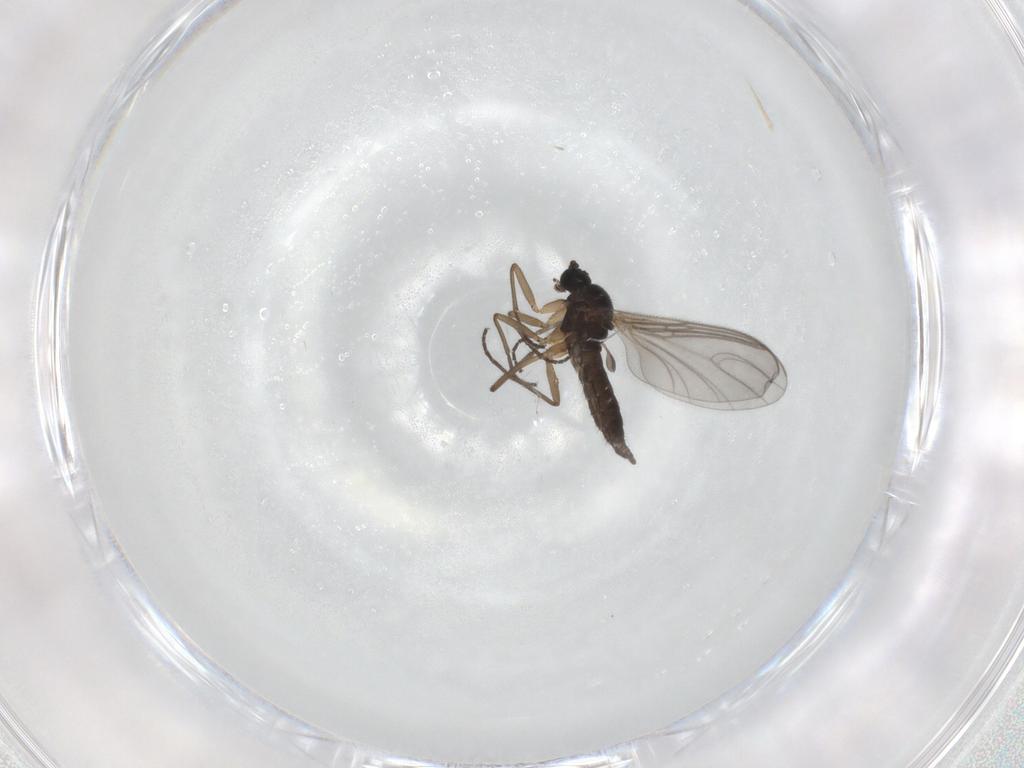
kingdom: Animalia
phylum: Arthropoda
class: Insecta
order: Diptera
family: Sciaridae
